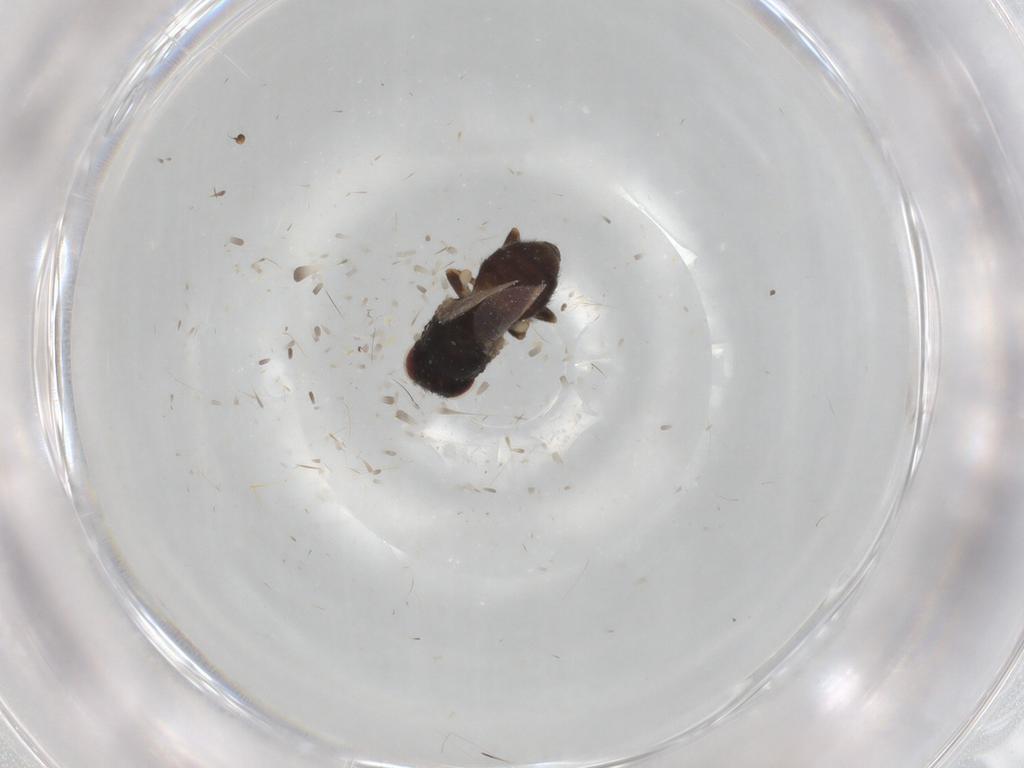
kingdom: Animalia
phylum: Arthropoda
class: Insecta
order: Diptera
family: Chloropidae
